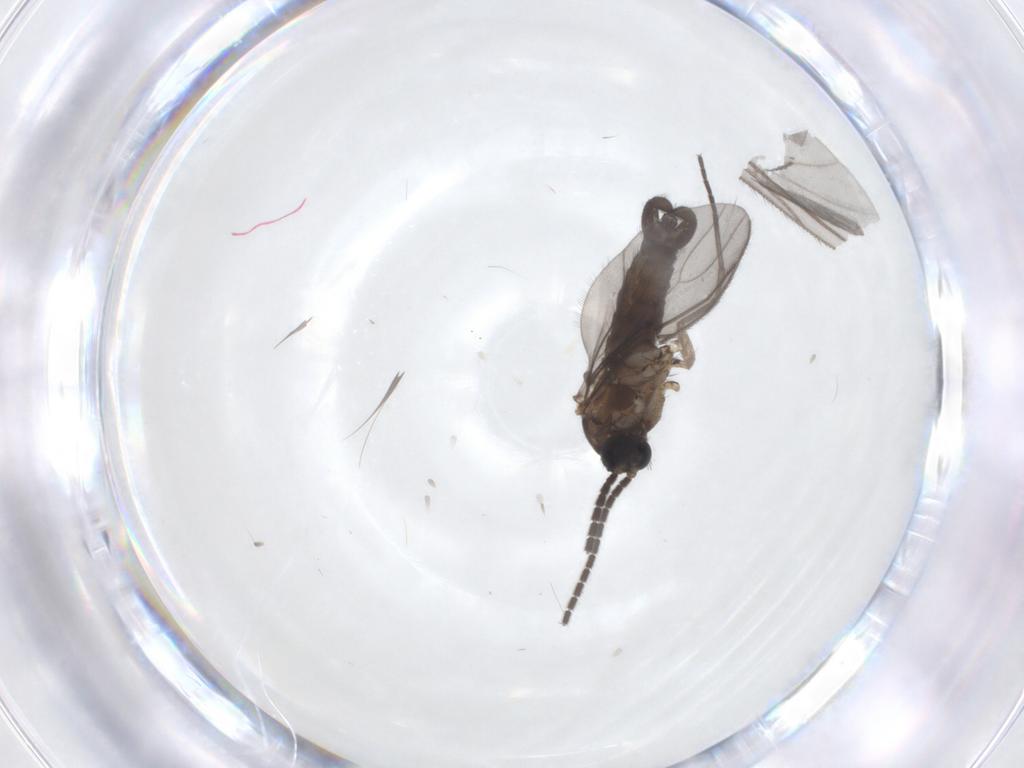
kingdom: Animalia
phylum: Arthropoda
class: Insecta
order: Diptera
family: Sciaridae
